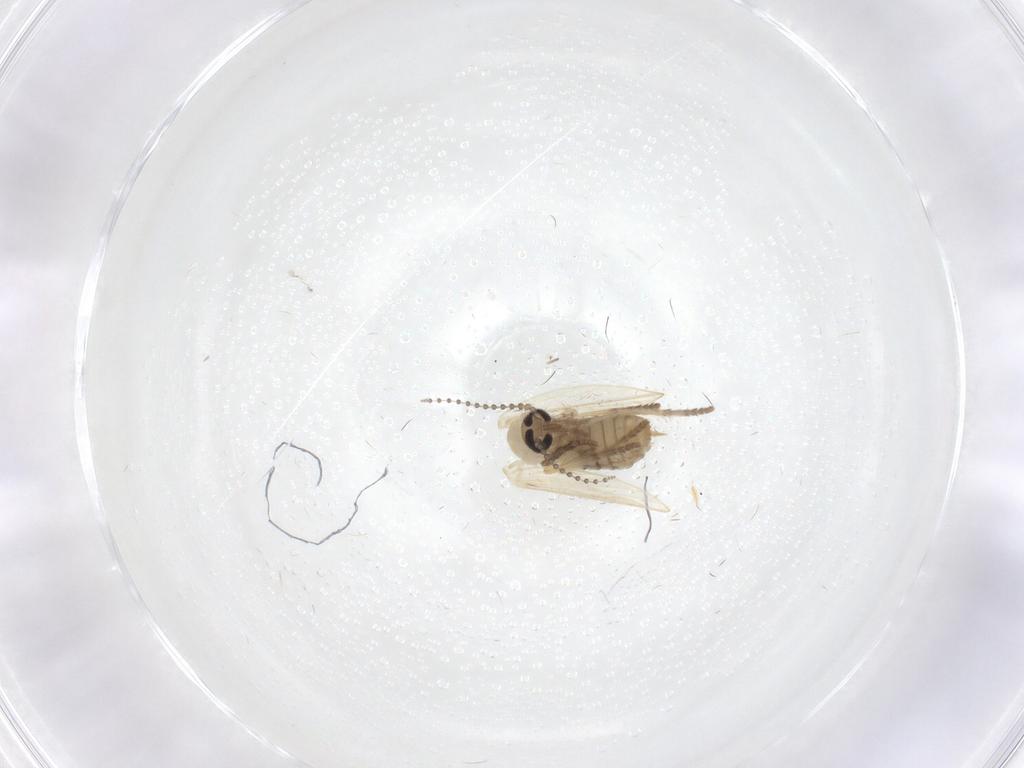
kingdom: Animalia
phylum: Arthropoda
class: Insecta
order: Diptera
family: Psychodidae
